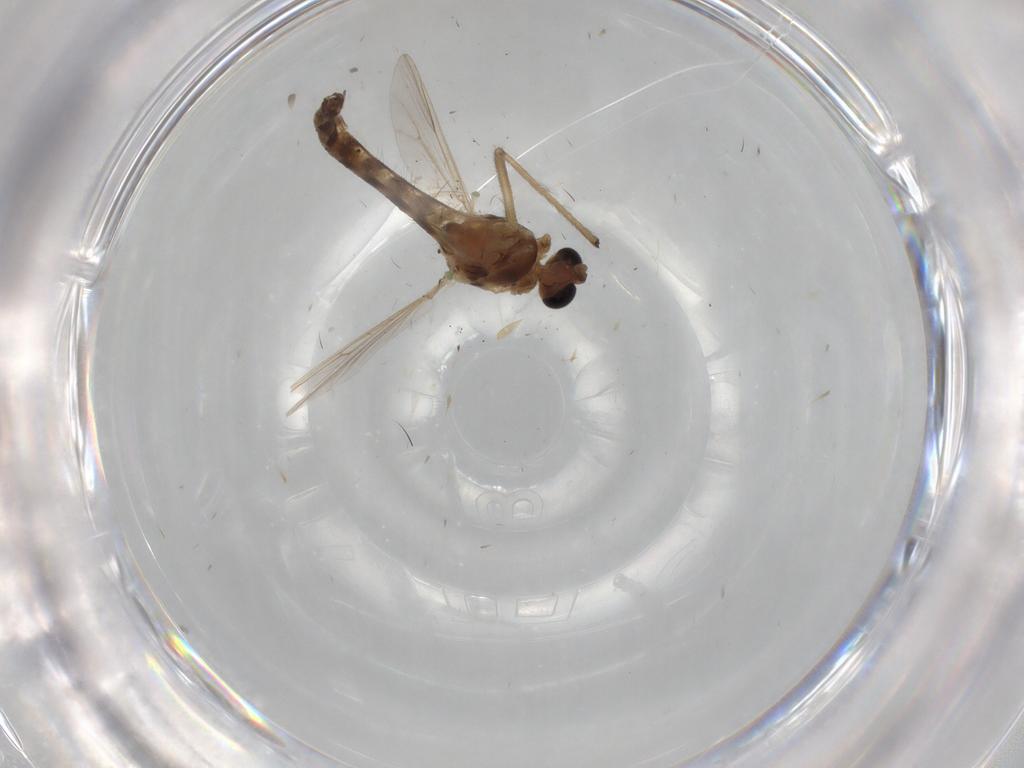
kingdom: Animalia
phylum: Arthropoda
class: Insecta
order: Diptera
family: Chironomidae
